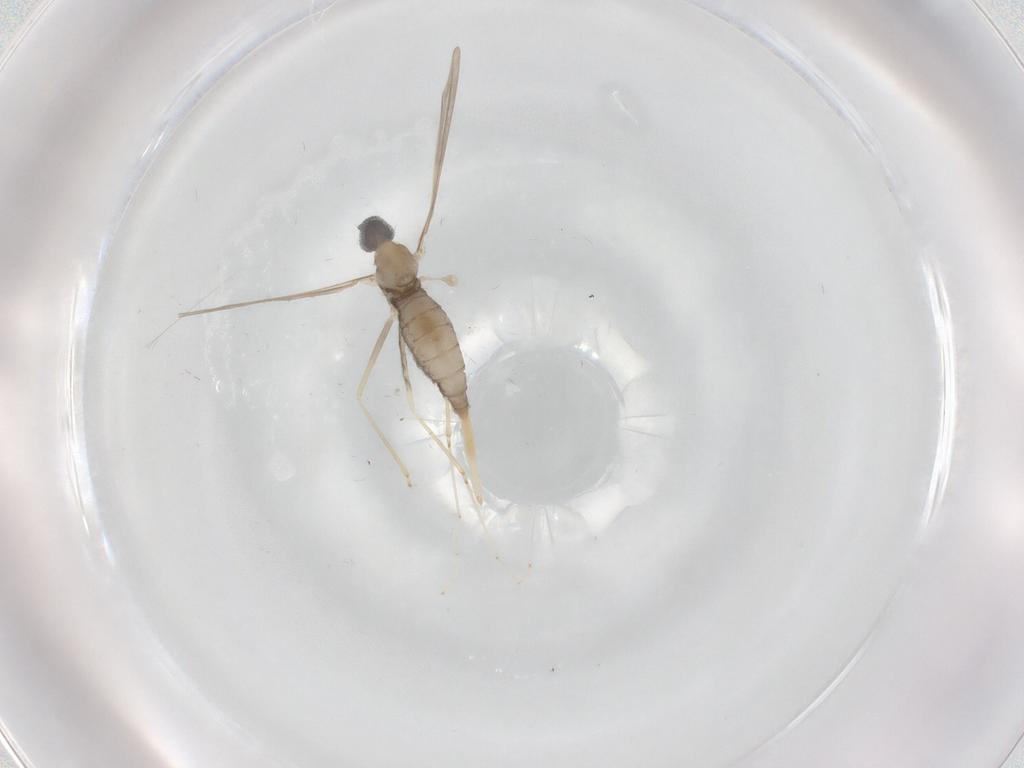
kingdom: Animalia
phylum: Arthropoda
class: Insecta
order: Diptera
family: Cecidomyiidae
